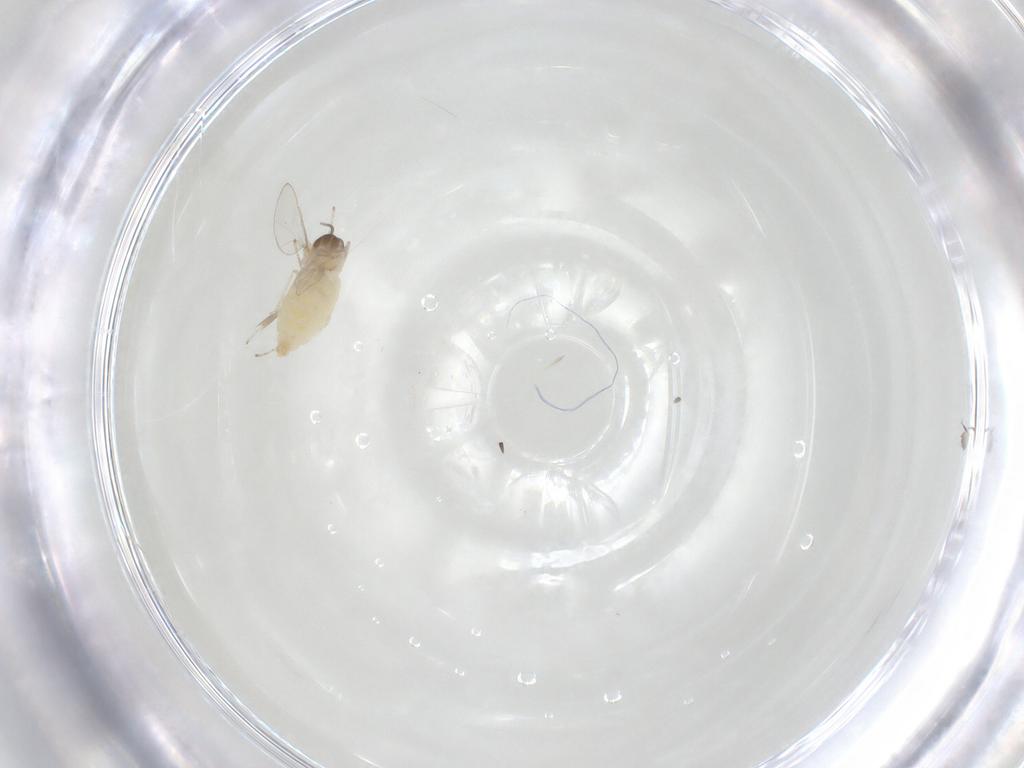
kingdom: Animalia
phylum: Arthropoda
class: Insecta
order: Diptera
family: Cecidomyiidae
